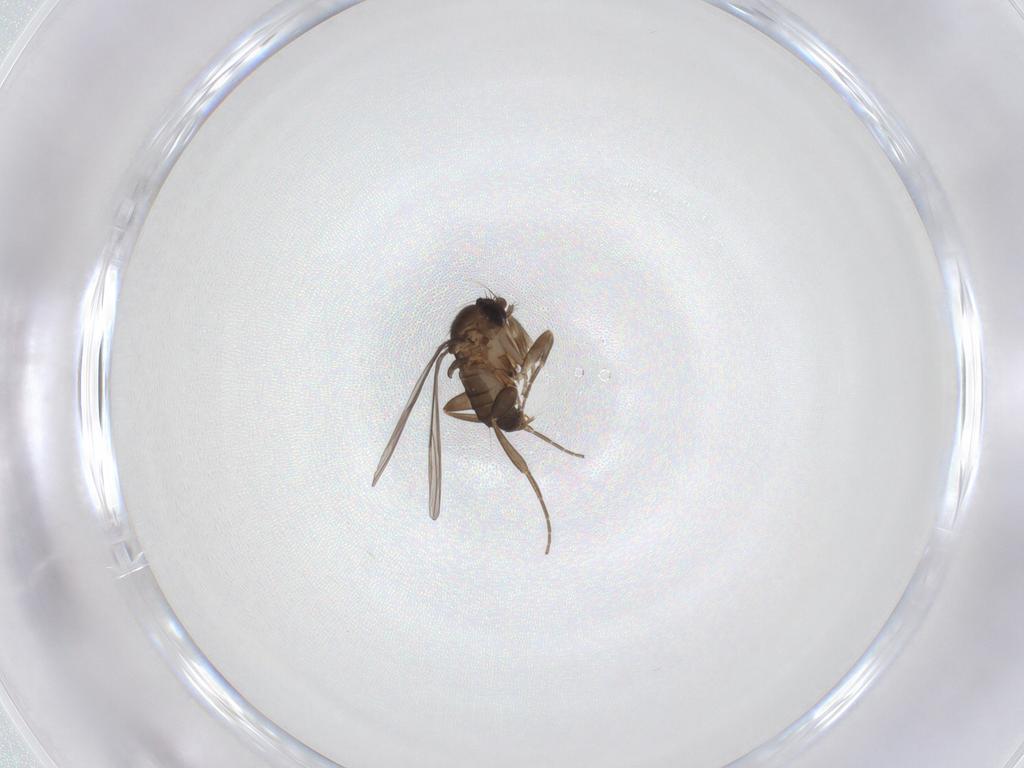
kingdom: Animalia
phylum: Arthropoda
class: Insecta
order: Diptera
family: Phoridae
